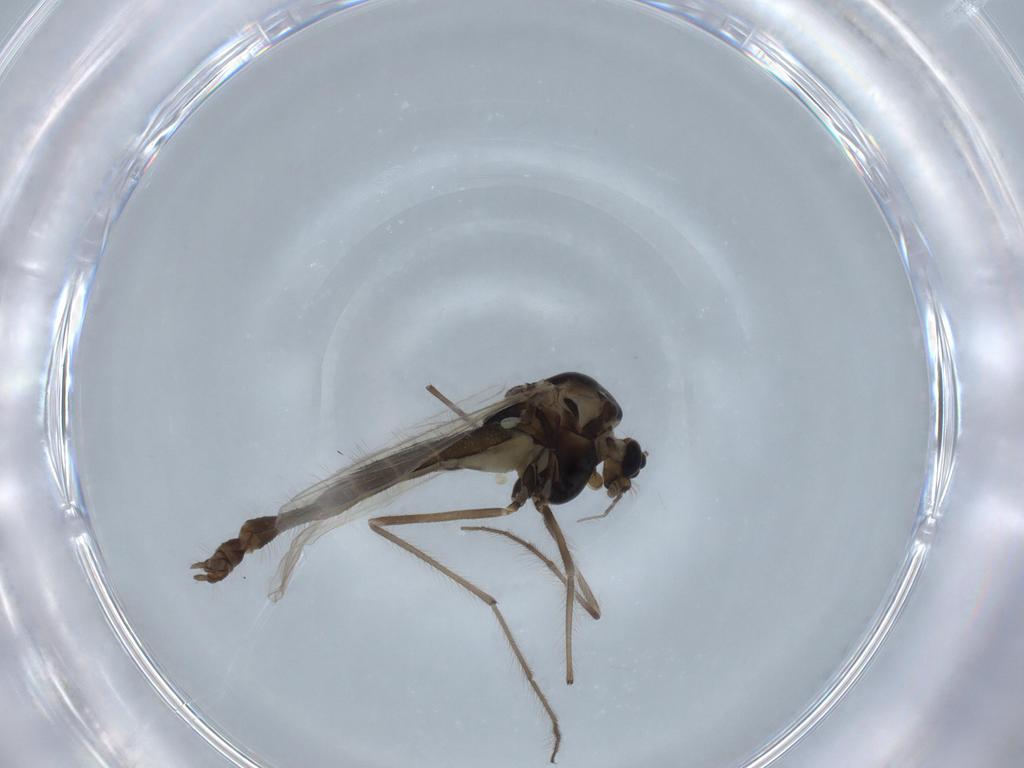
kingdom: Animalia
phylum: Arthropoda
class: Insecta
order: Diptera
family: Chironomidae
